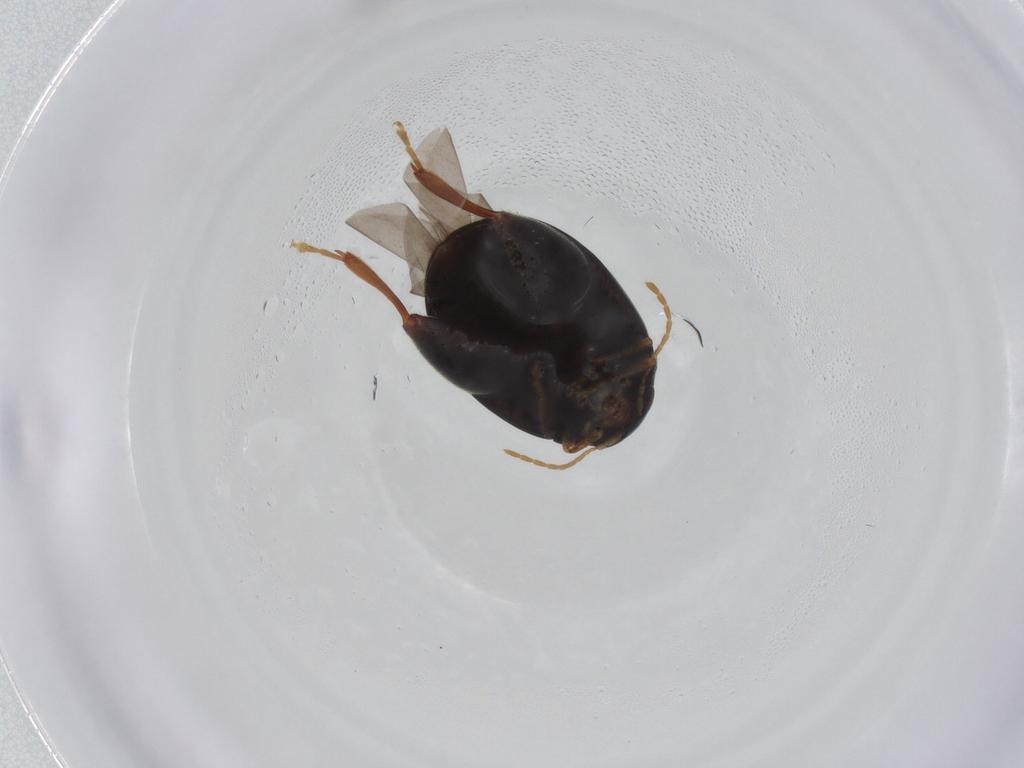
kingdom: Animalia
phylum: Arthropoda
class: Insecta
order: Coleoptera
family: Chrysomelidae
